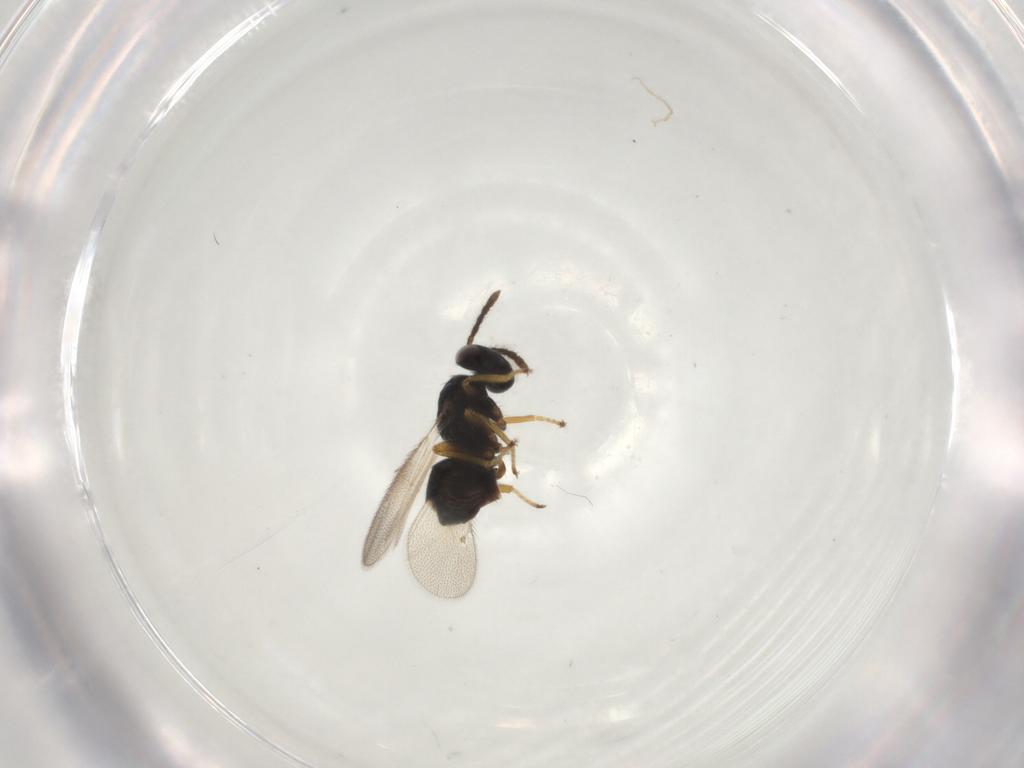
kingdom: Animalia
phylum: Arthropoda
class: Insecta
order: Hymenoptera
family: Eulophidae
